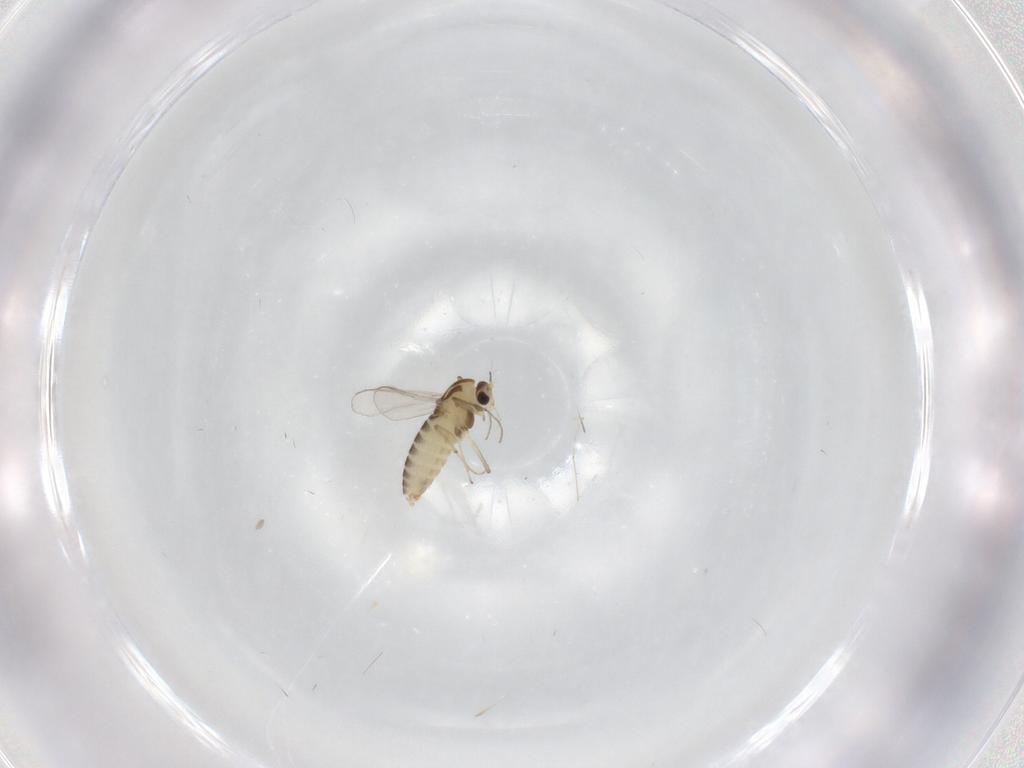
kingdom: Animalia
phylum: Arthropoda
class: Insecta
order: Diptera
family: Chironomidae
